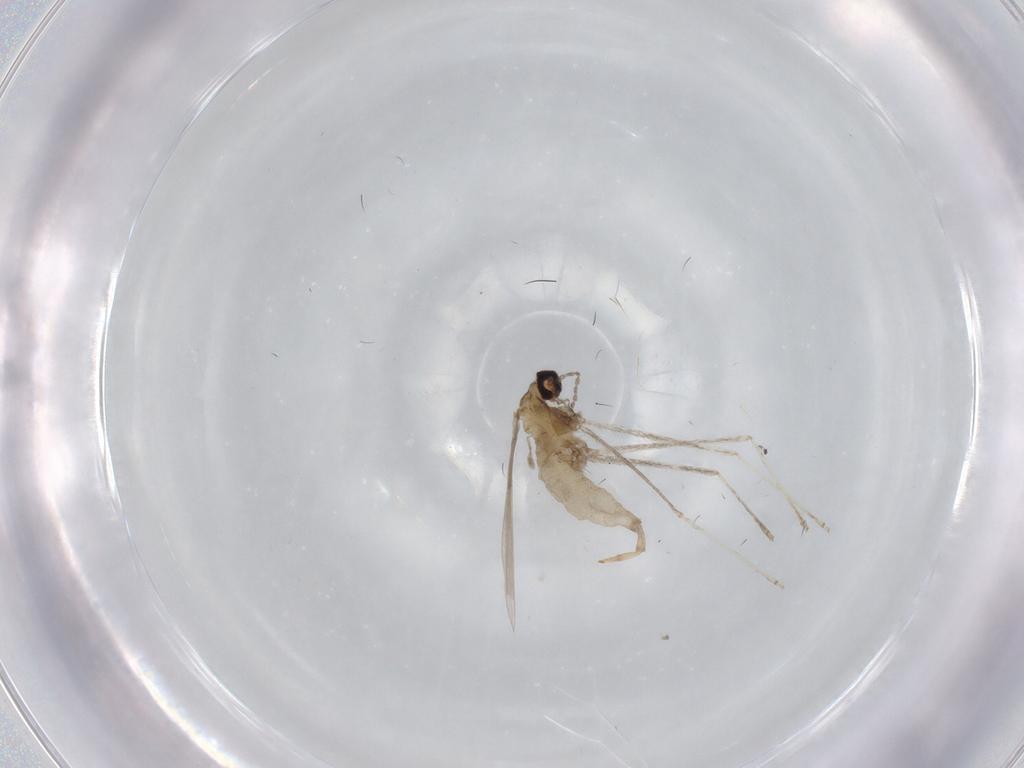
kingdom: Animalia
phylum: Arthropoda
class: Insecta
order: Diptera
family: Cecidomyiidae
